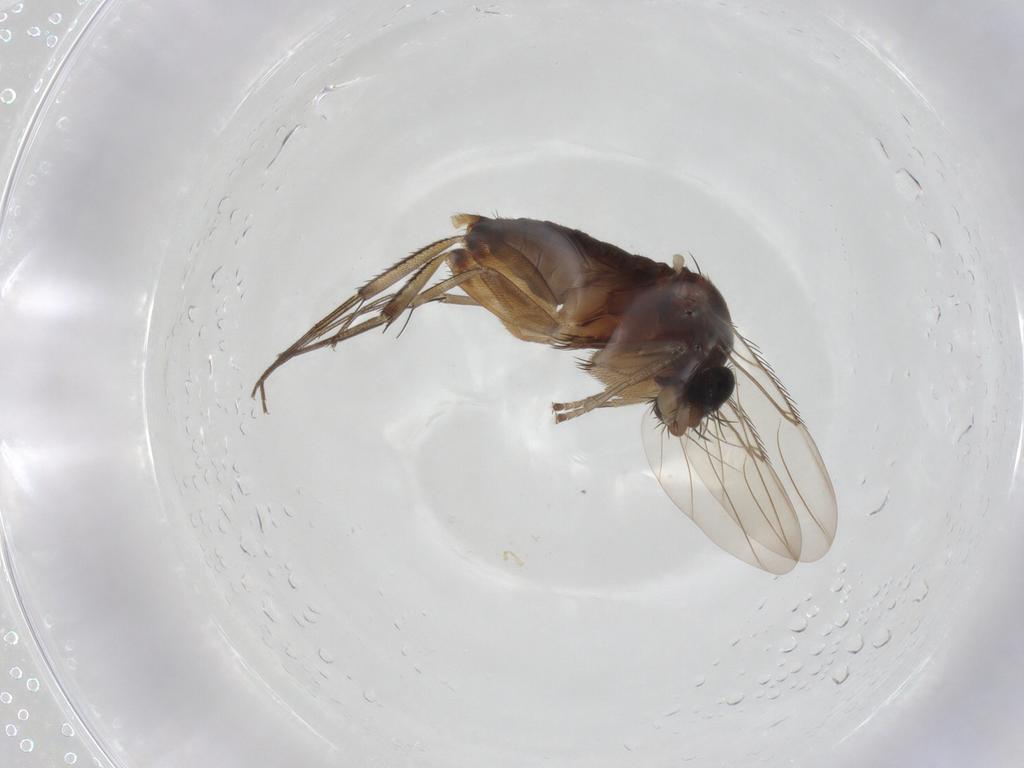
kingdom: Animalia
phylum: Arthropoda
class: Insecta
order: Diptera
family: Phoridae
